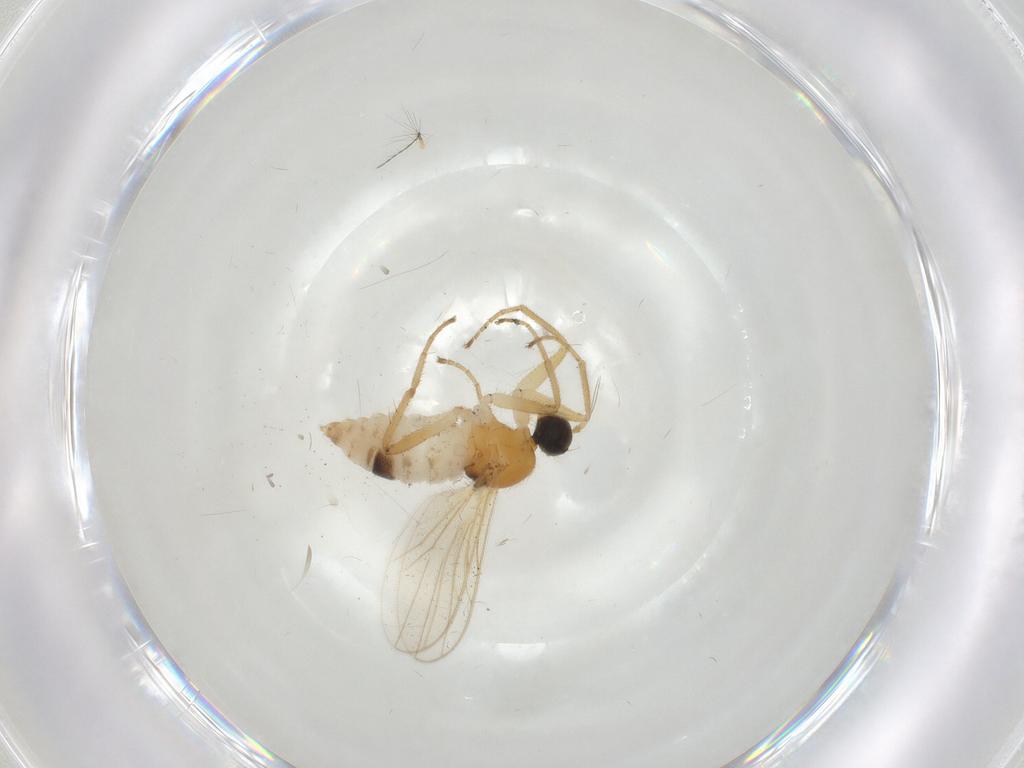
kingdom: Animalia
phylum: Arthropoda
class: Insecta
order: Diptera
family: Hybotidae
